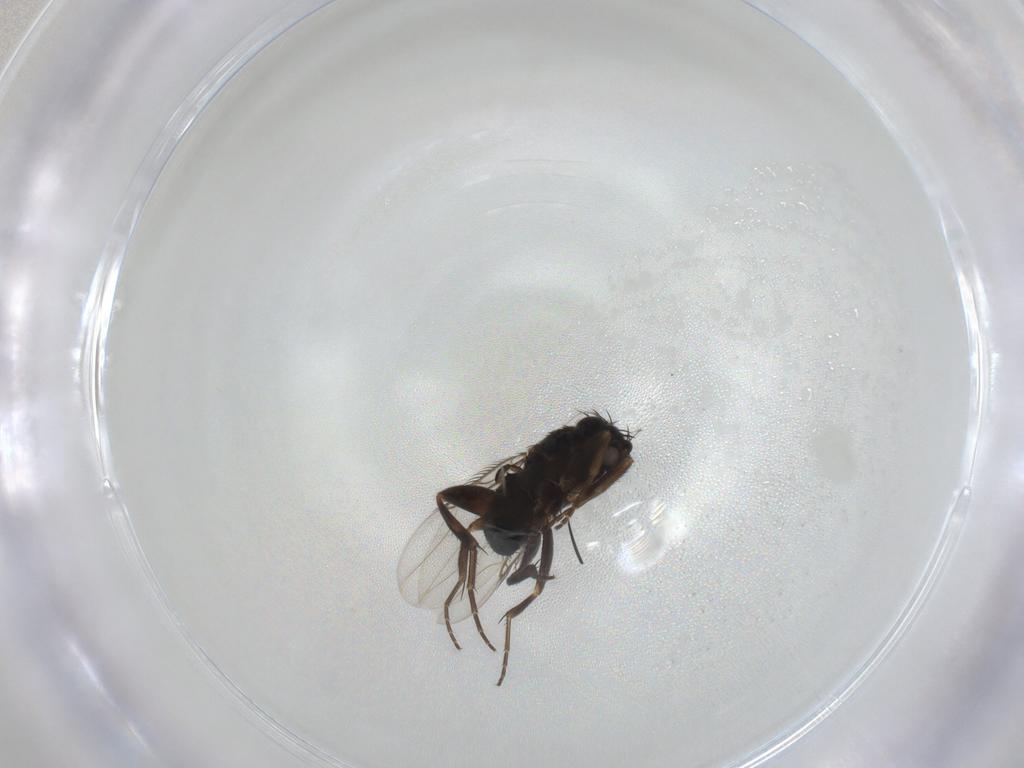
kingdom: Animalia
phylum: Arthropoda
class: Insecta
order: Diptera
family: Phoridae
